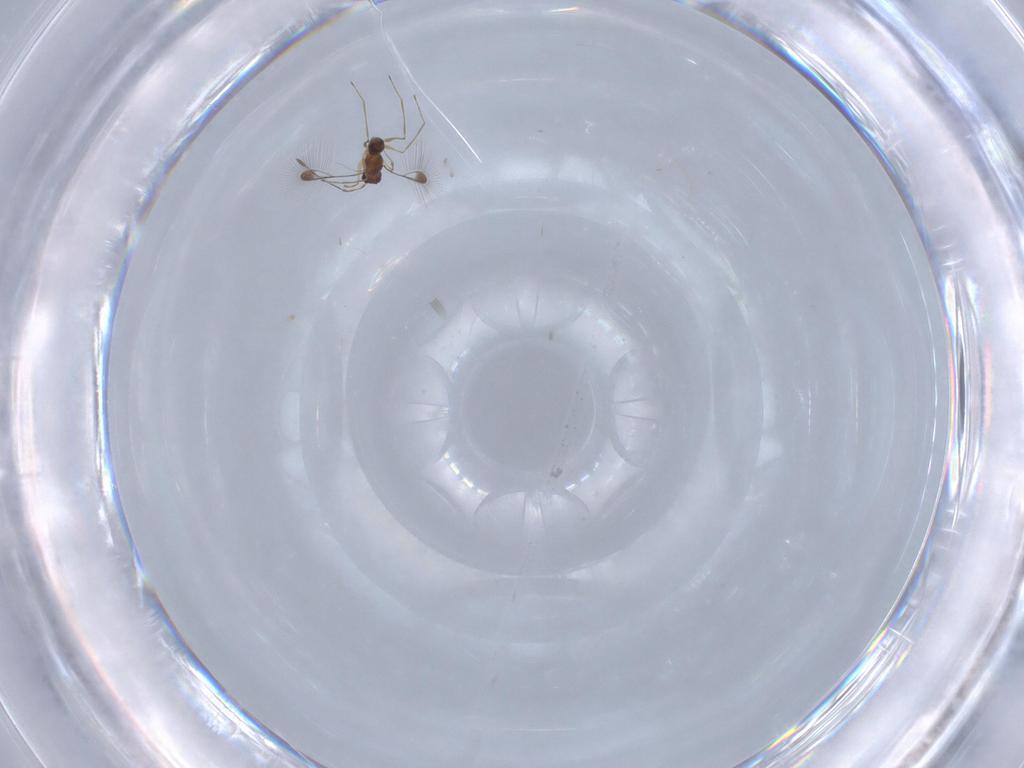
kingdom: Animalia
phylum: Arthropoda
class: Insecta
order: Hymenoptera
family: Mymaridae
